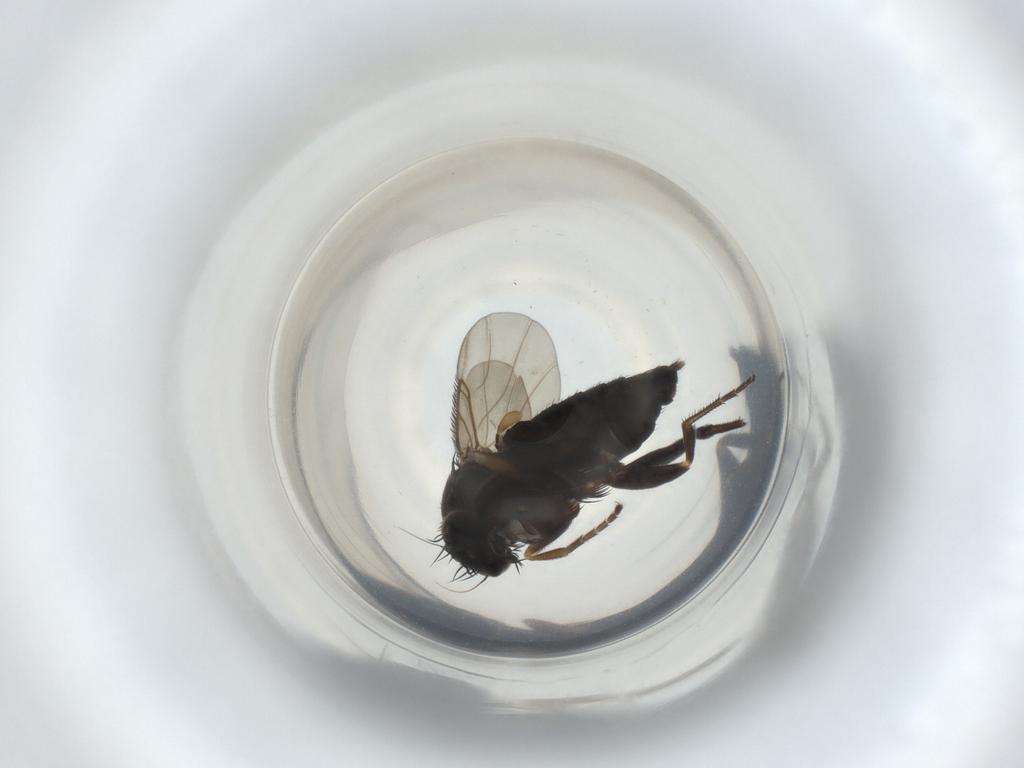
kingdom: Animalia
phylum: Arthropoda
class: Insecta
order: Diptera
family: Phoridae
